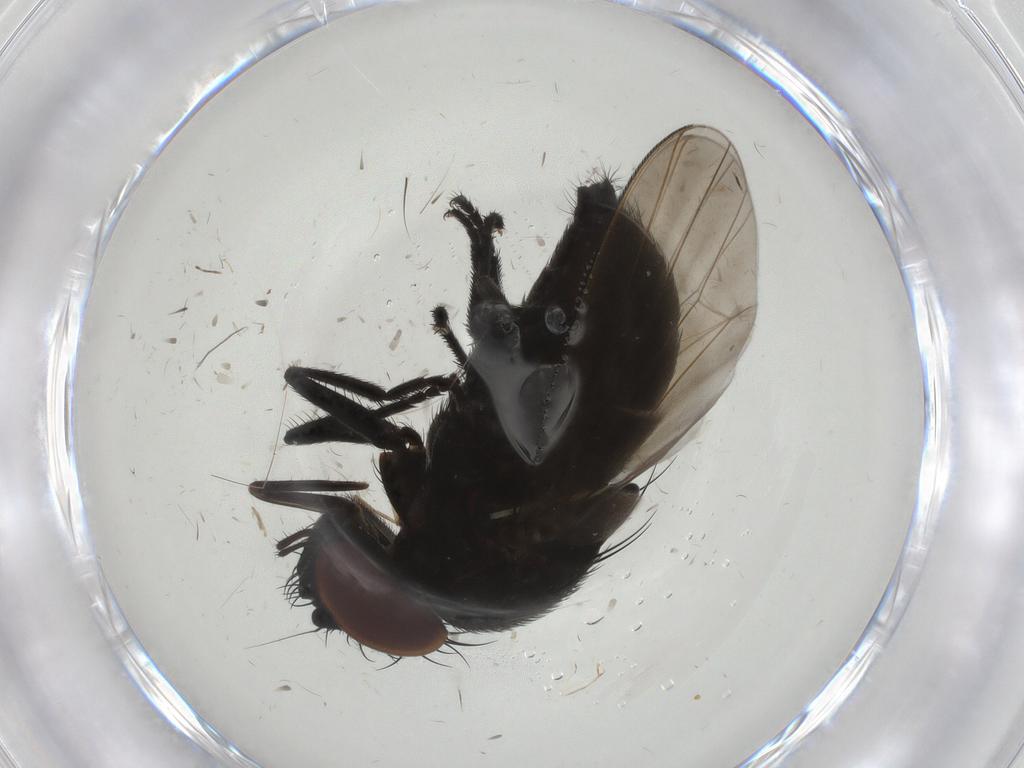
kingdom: Animalia
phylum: Arthropoda
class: Insecta
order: Diptera
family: Milichiidae
